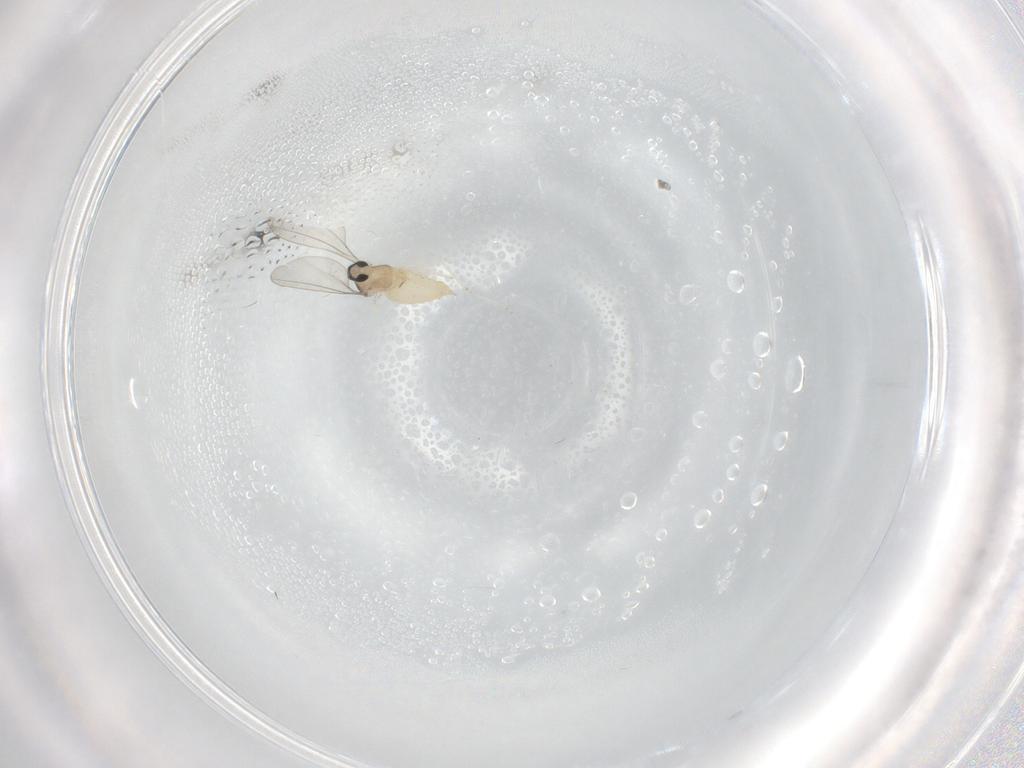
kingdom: Animalia
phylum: Arthropoda
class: Insecta
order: Diptera
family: Cecidomyiidae
